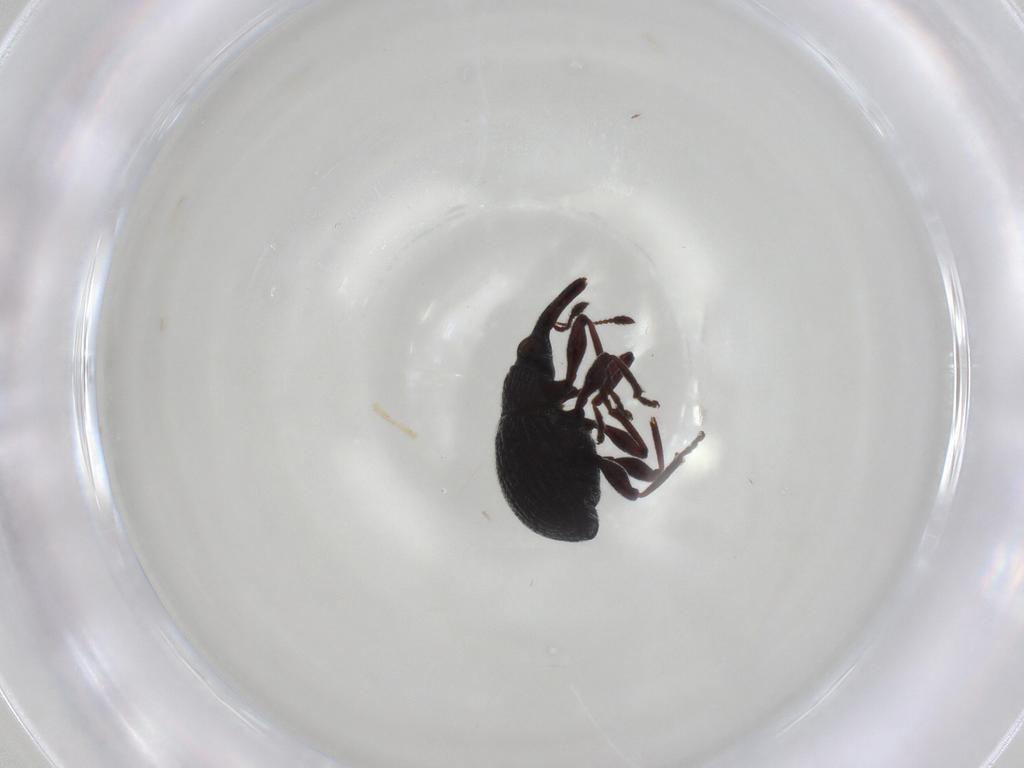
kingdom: Animalia
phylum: Arthropoda
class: Insecta
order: Coleoptera
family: Brentidae
